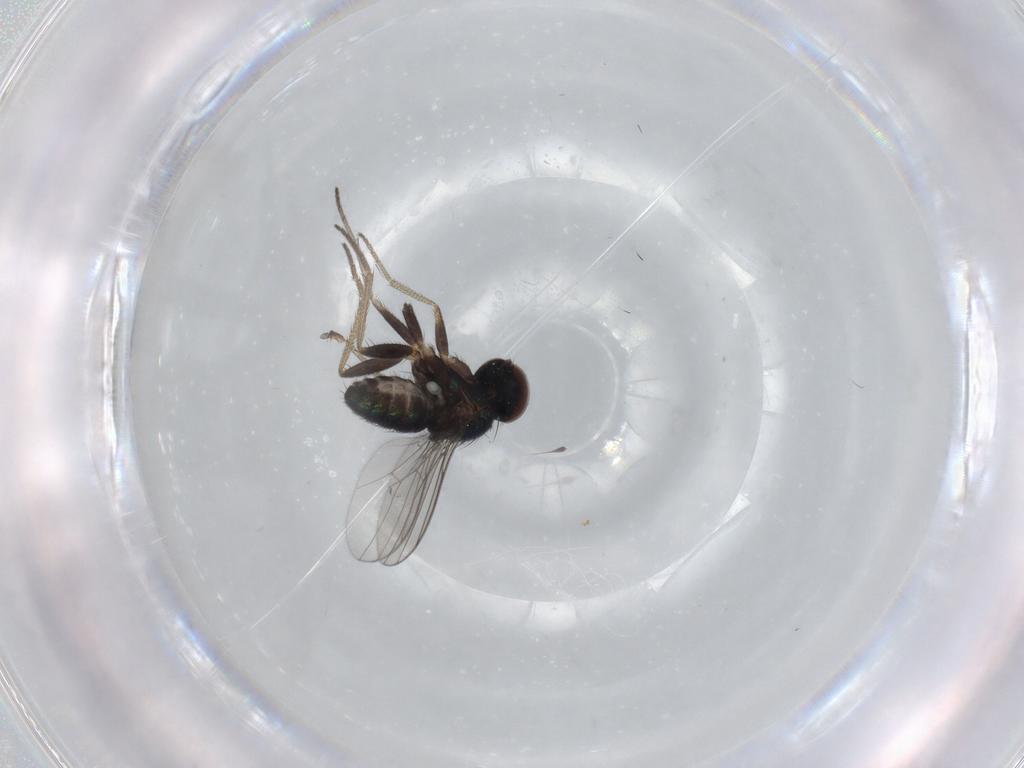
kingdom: Animalia
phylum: Arthropoda
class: Insecta
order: Diptera
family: Dolichopodidae
